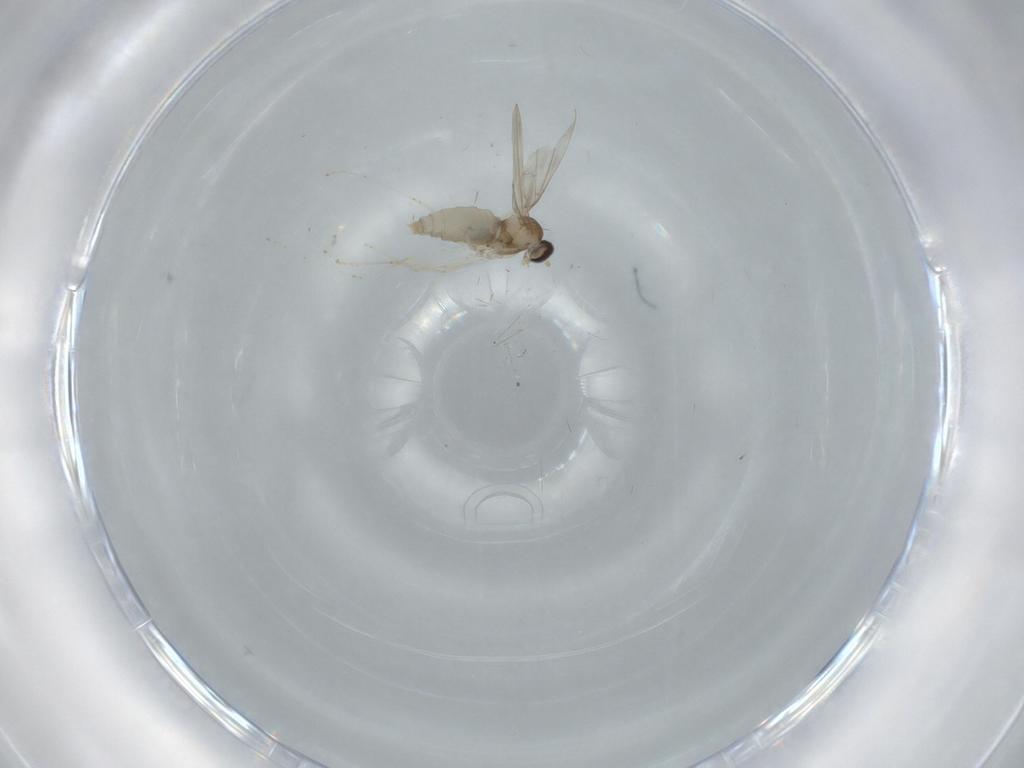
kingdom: Animalia
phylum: Arthropoda
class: Insecta
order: Diptera
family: Cecidomyiidae
